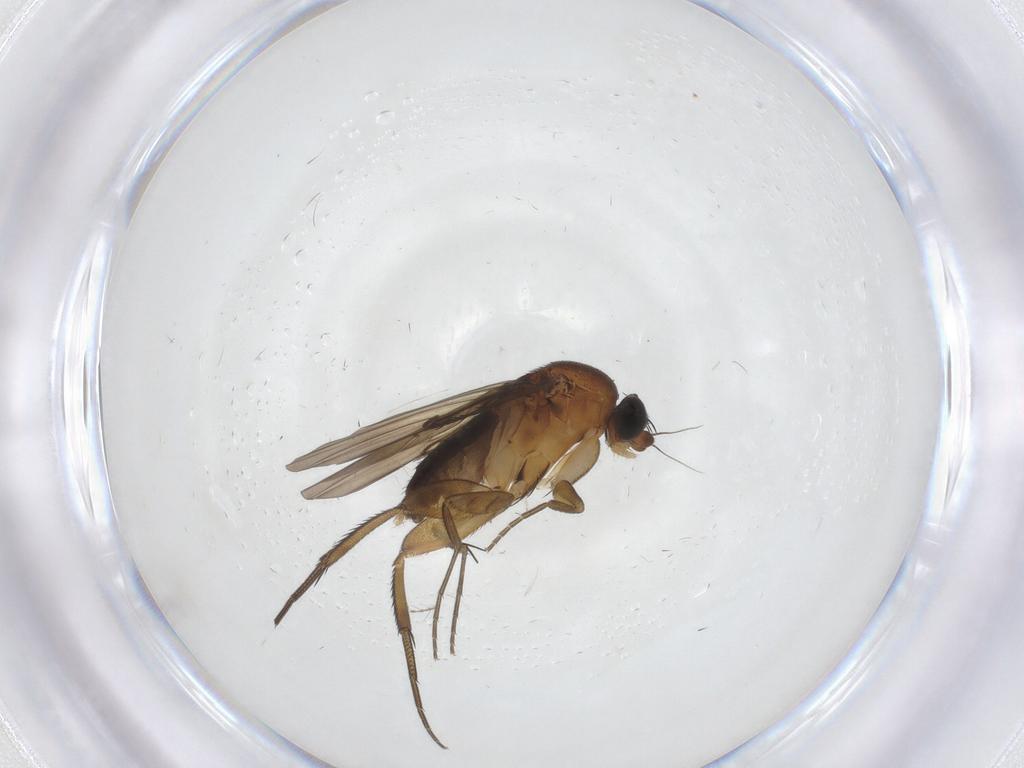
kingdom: Animalia
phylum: Arthropoda
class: Insecta
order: Diptera
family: Phoridae
